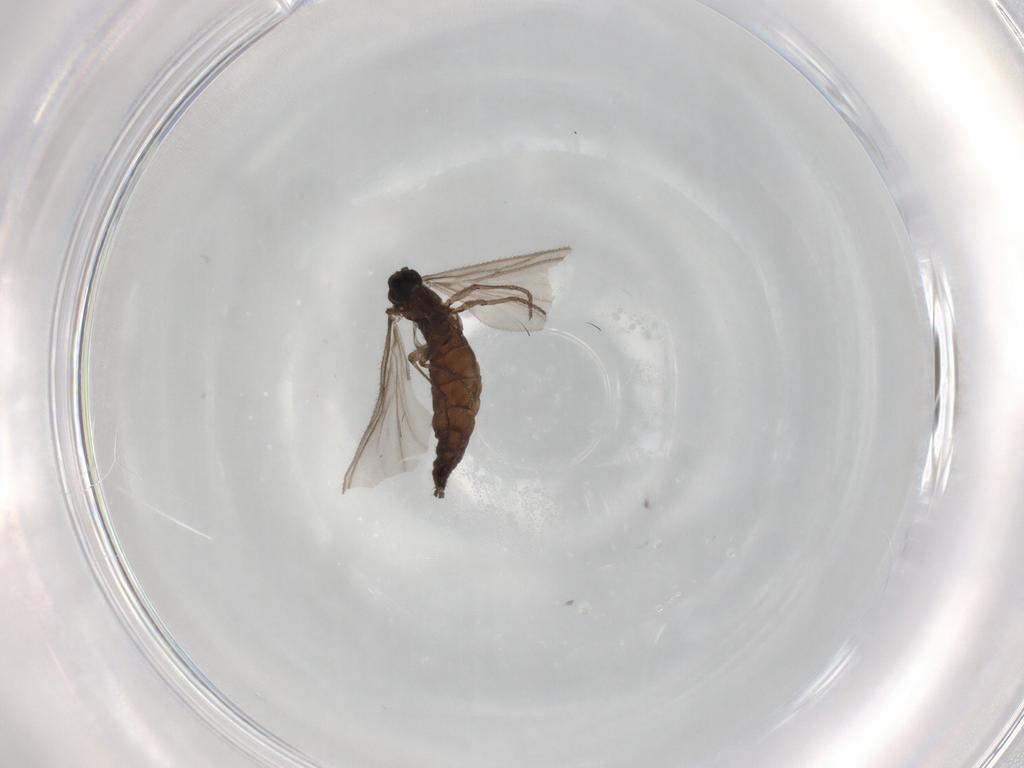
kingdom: Animalia
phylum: Arthropoda
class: Insecta
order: Diptera
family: Sciaridae
